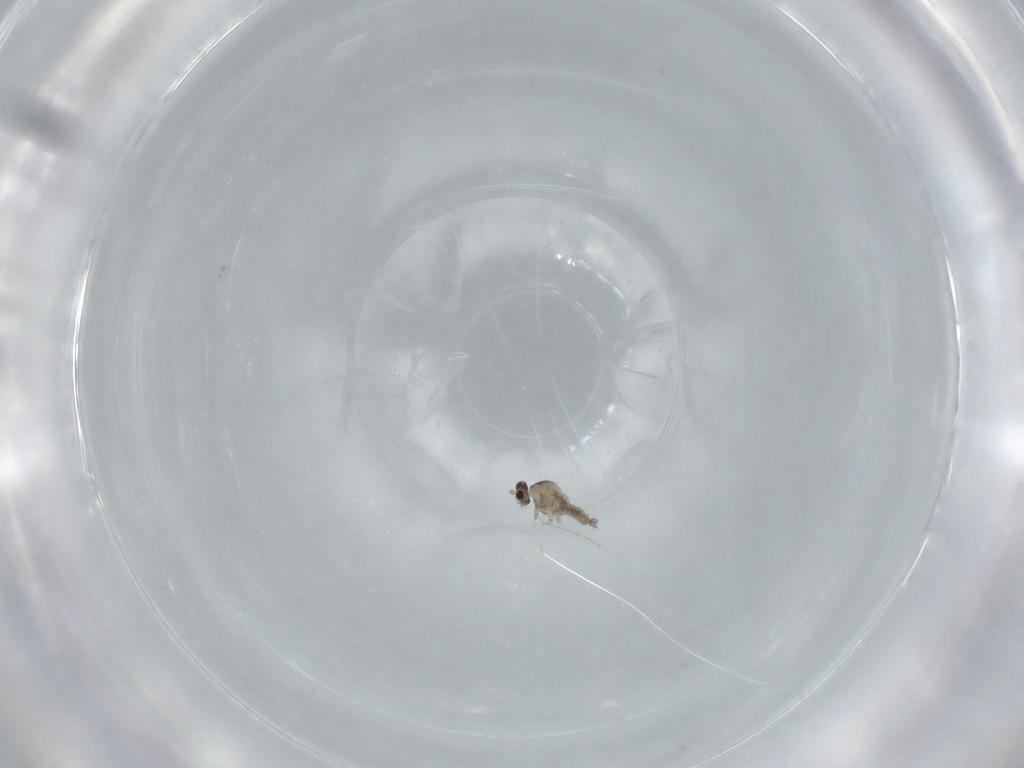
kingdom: Animalia
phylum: Arthropoda
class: Insecta
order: Diptera
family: Cecidomyiidae
